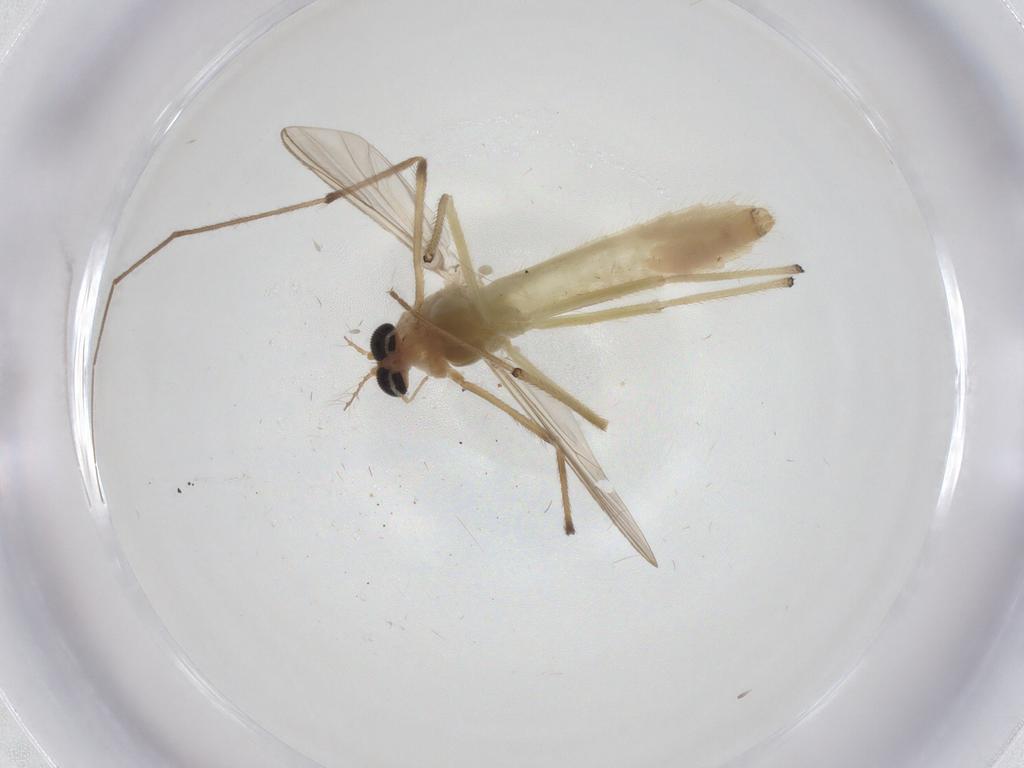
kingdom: Animalia
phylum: Arthropoda
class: Insecta
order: Diptera
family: Chironomidae
